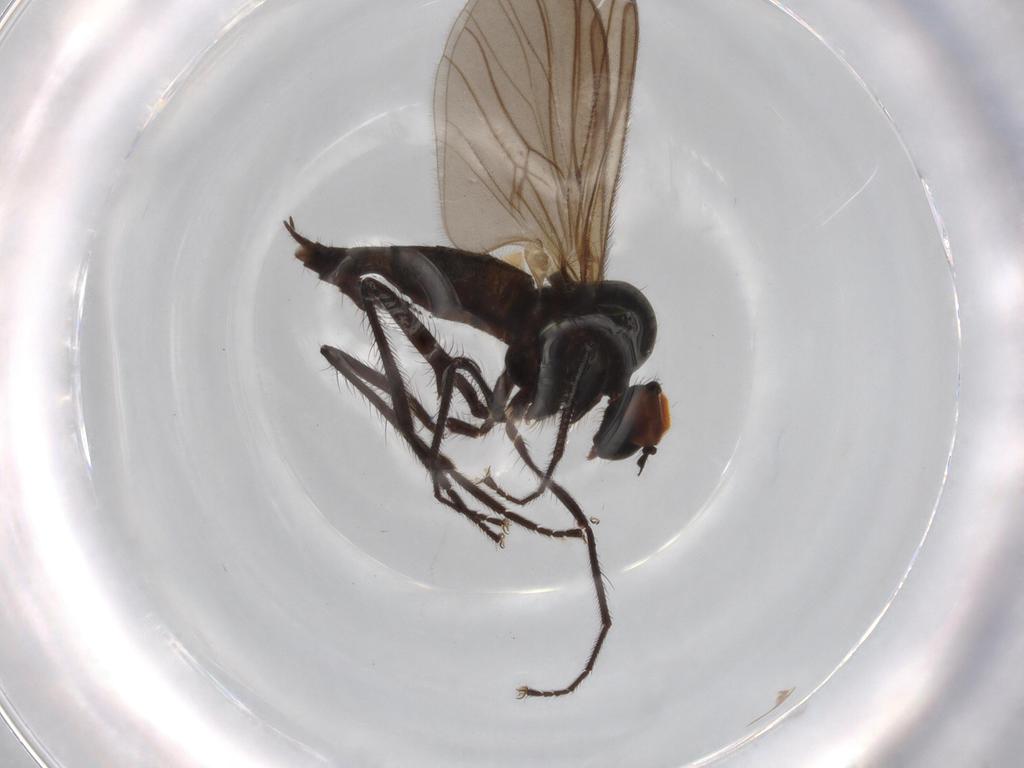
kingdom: Animalia
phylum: Arthropoda
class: Insecta
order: Diptera
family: Hybotidae
